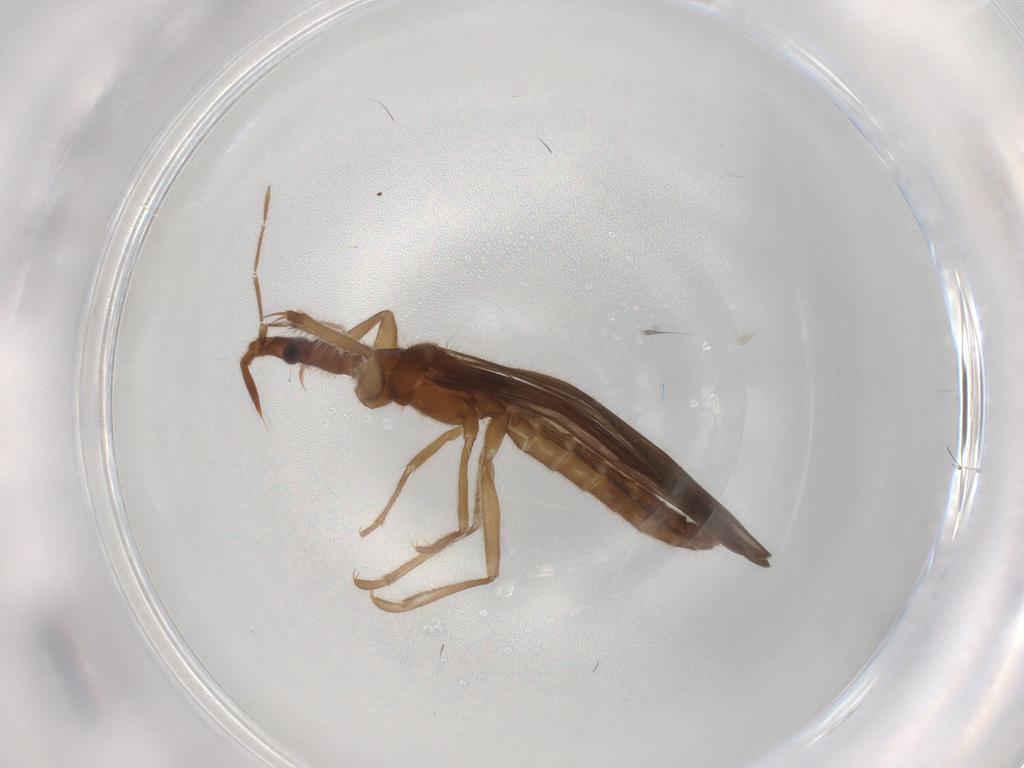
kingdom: Animalia
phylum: Arthropoda
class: Insecta
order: Hemiptera
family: Enicocephalidae
